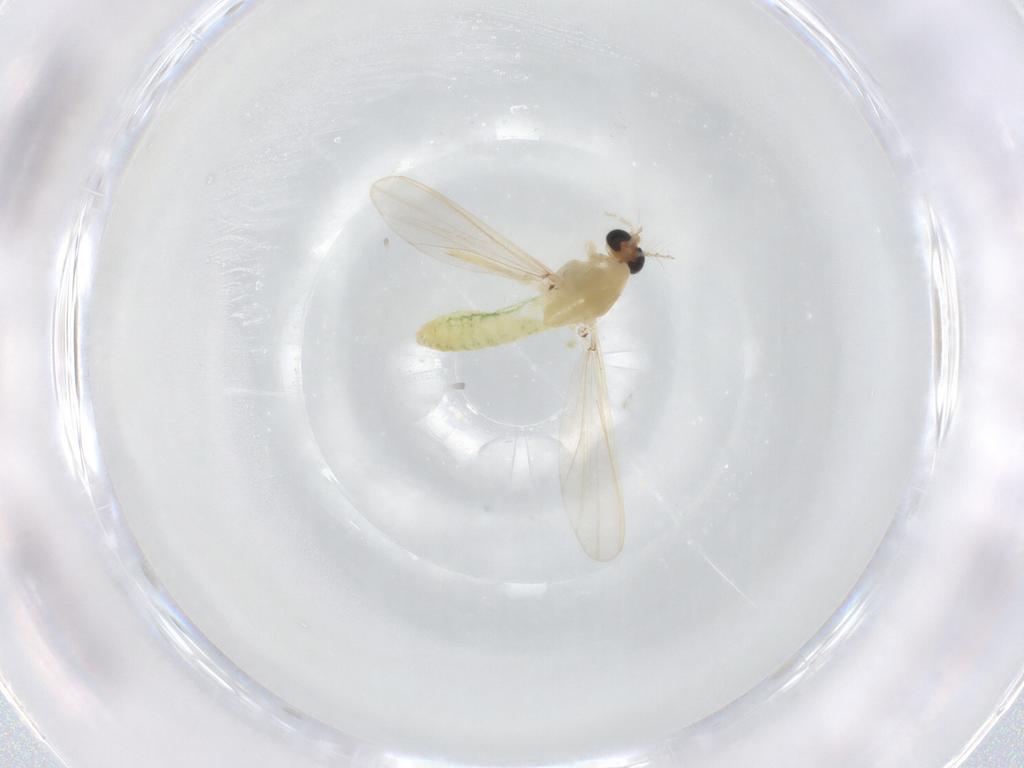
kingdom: Animalia
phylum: Arthropoda
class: Insecta
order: Diptera
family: Chironomidae
